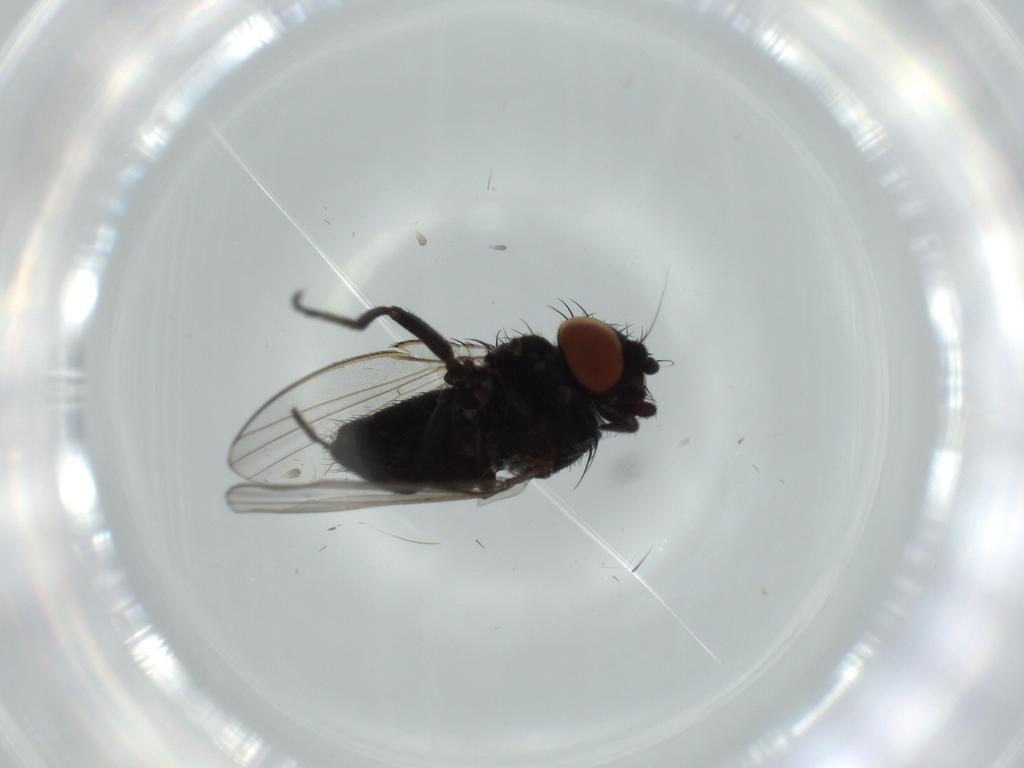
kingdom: Animalia
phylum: Arthropoda
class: Insecta
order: Diptera
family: Milichiidae
